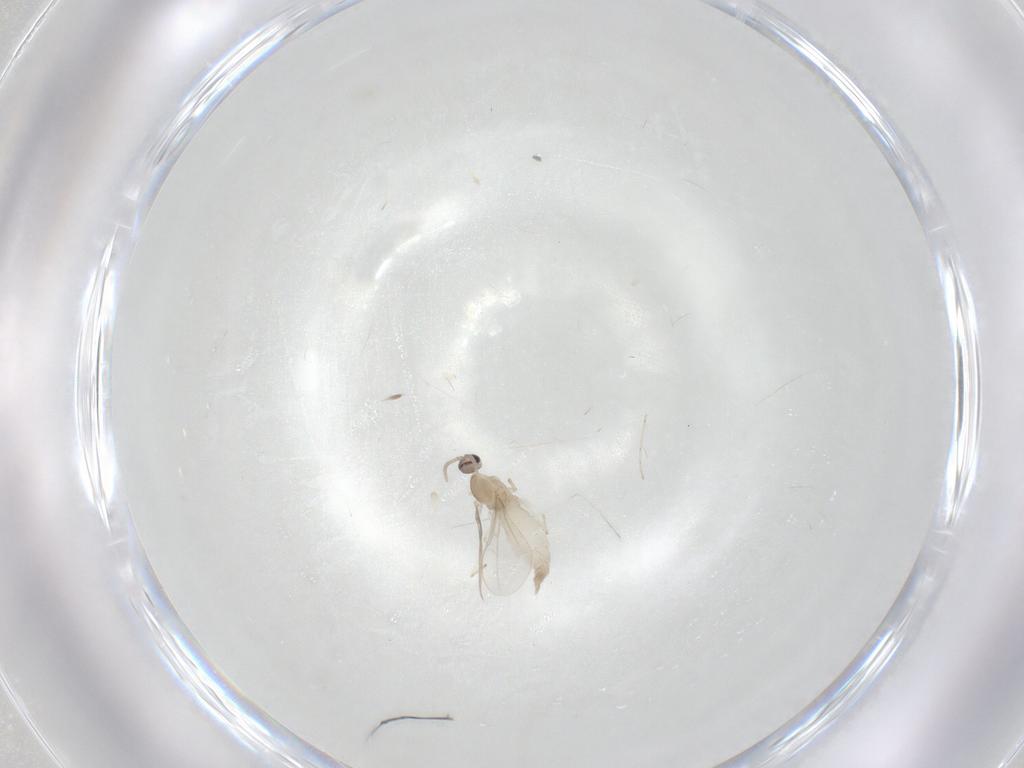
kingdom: Animalia
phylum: Arthropoda
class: Insecta
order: Diptera
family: Cecidomyiidae
